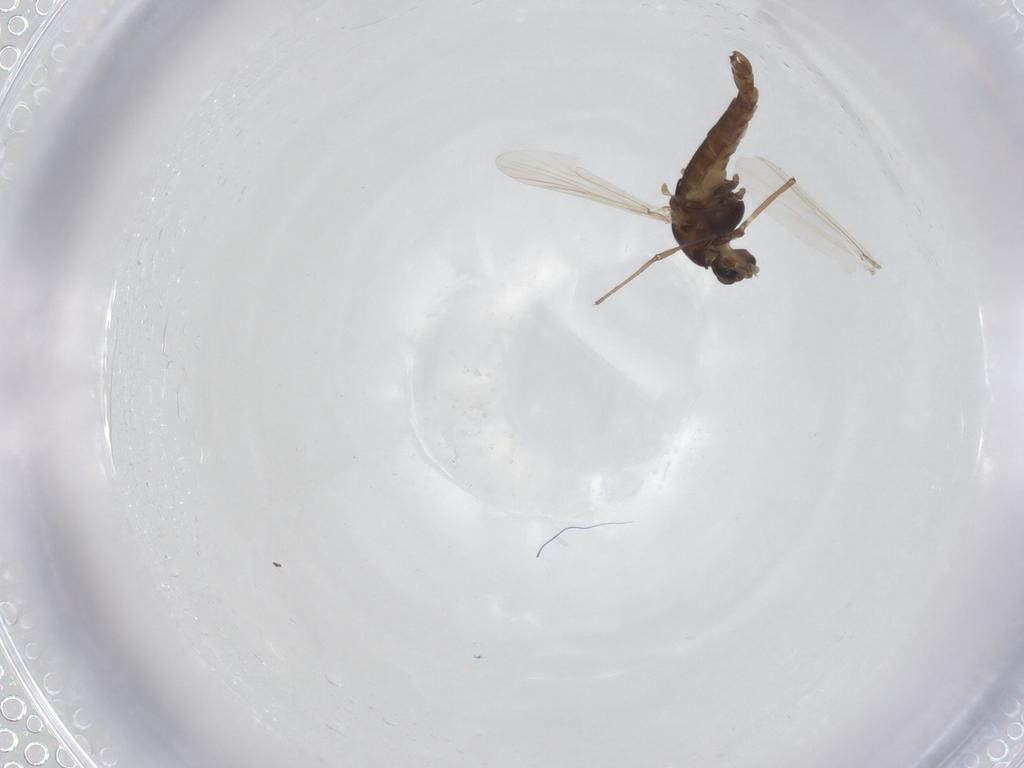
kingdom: Animalia
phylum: Arthropoda
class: Insecta
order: Diptera
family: Chironomidae
